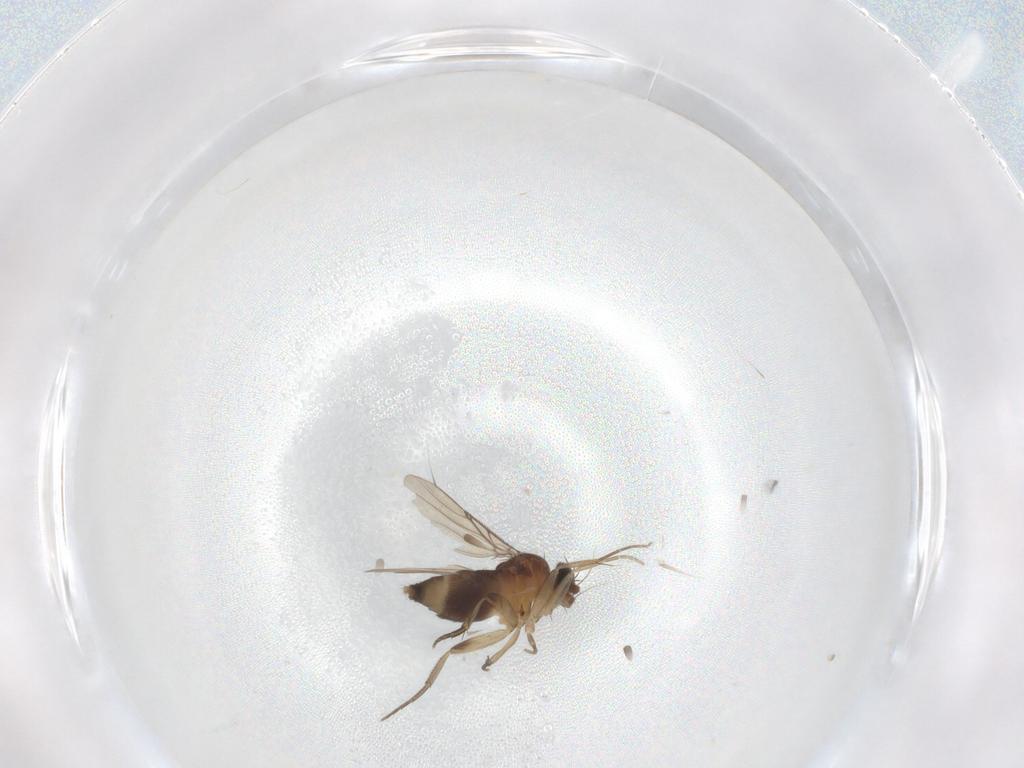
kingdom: Animalia
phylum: Arthropoda
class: Insecta
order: Diptera
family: Phoridae
